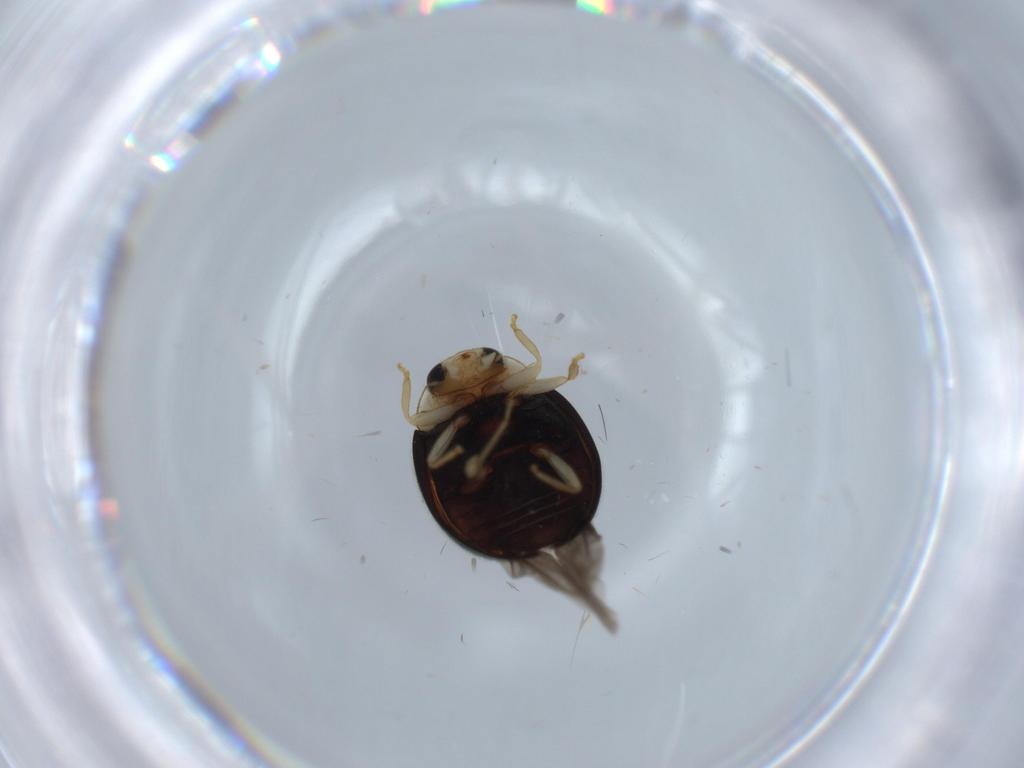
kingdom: Animalia
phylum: Arthropoda
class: Insecta
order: Coleoptera
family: Coccinellidae
